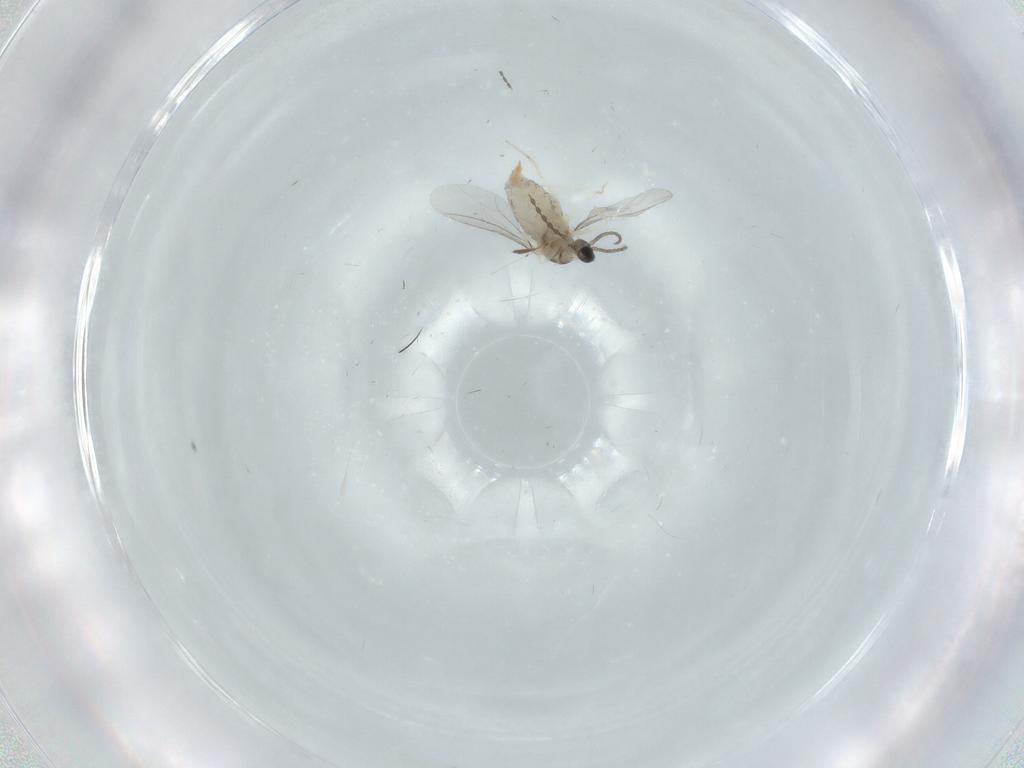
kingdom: Animalia
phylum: Arthropoda
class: Insecta
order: Diptera
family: Cecidomyiidae
